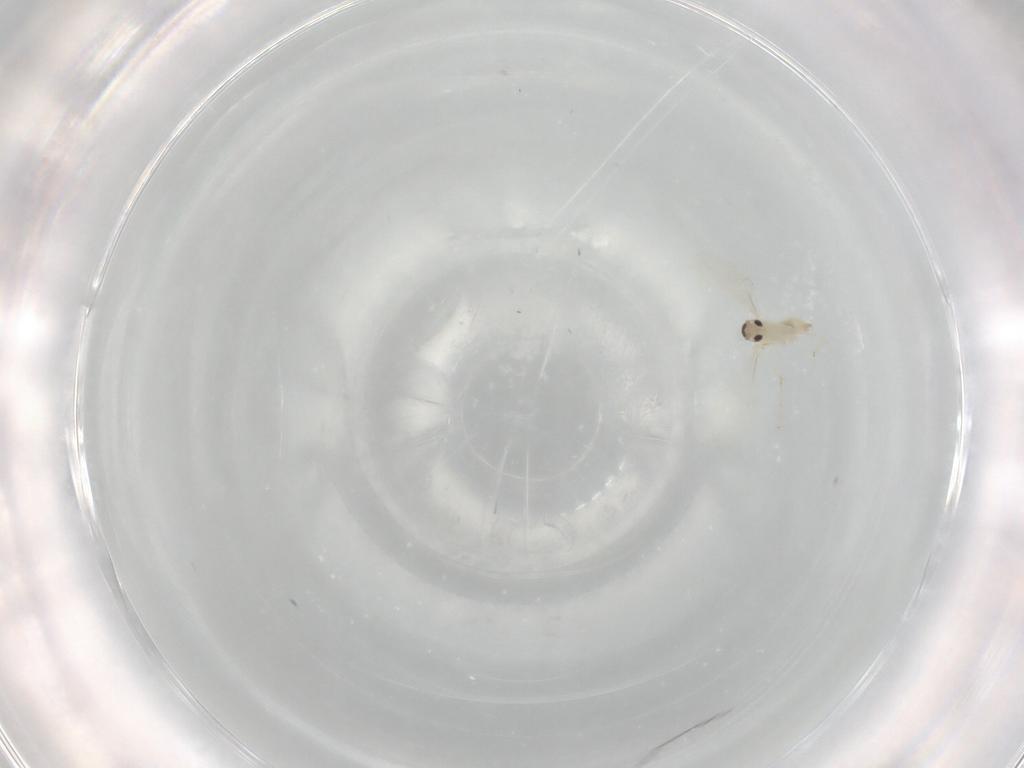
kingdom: Animalia
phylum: Arthropoda
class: Insecta
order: Diptera
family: Cecidomyiidae
